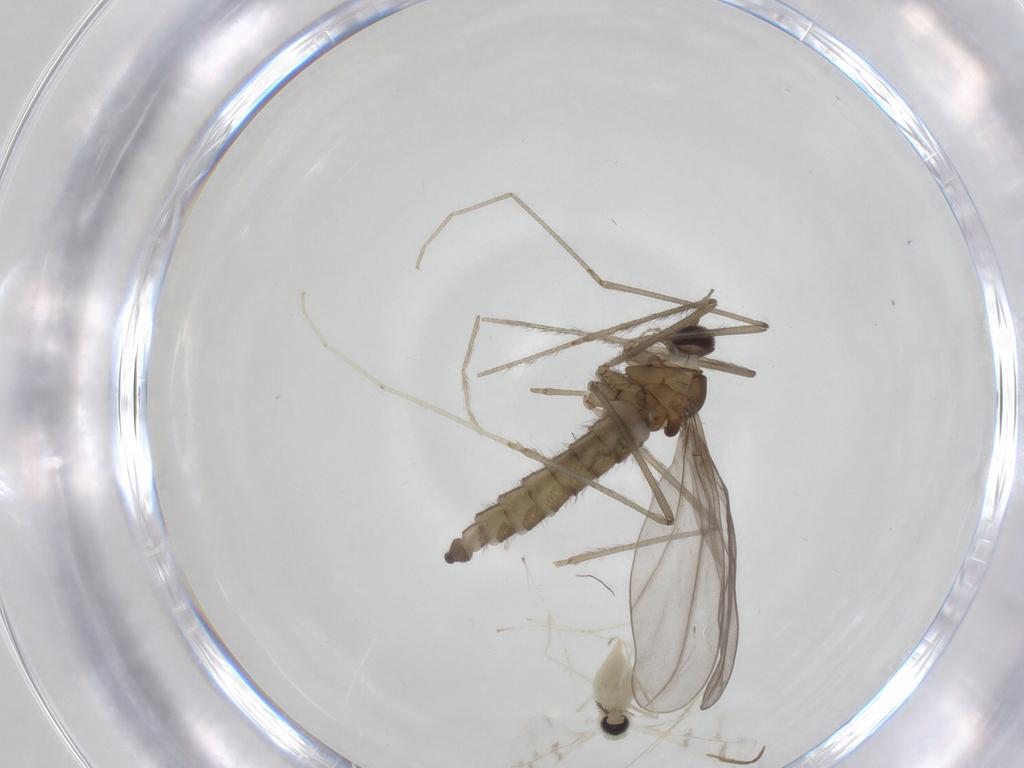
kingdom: Animalia
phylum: Arthropoda
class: Insecta
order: Diptera
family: Cecidomyiidae
